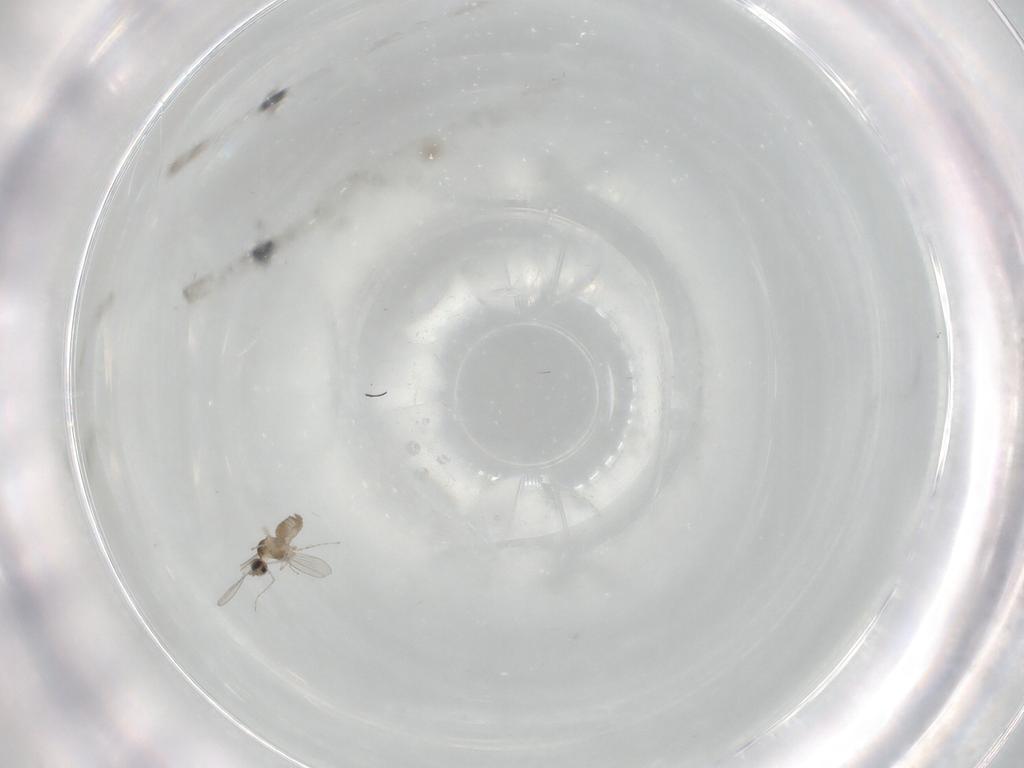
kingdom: Animalia
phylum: Arthropoda
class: Insecta
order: Diptera
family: Cecidomyiidae
